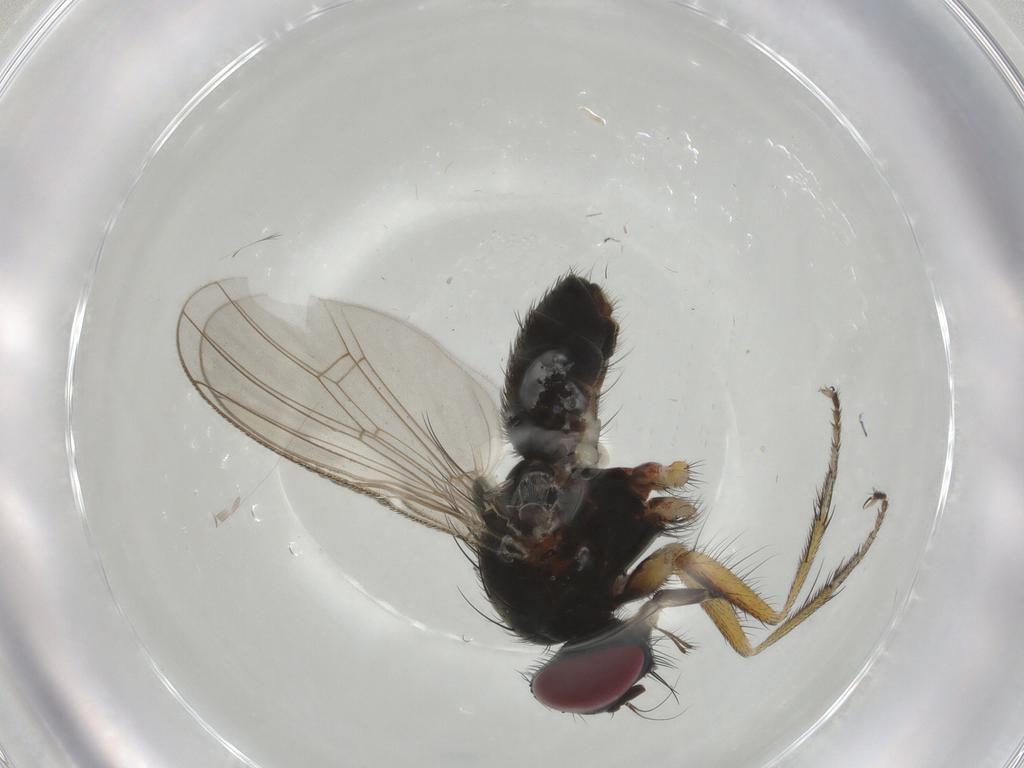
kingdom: Animalia
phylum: Arthropoda
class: Insecta
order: Diptera
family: Muscidae
